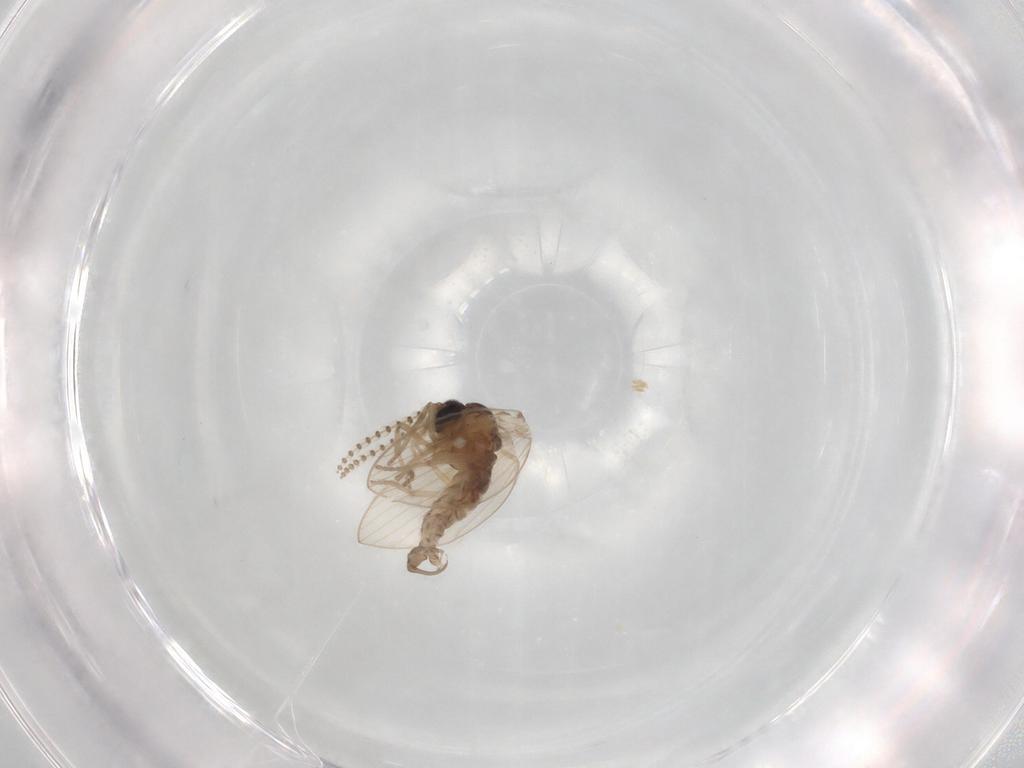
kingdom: Animalia
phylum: Arthropoda
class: Insecta
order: Diptera
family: Psychodidae
